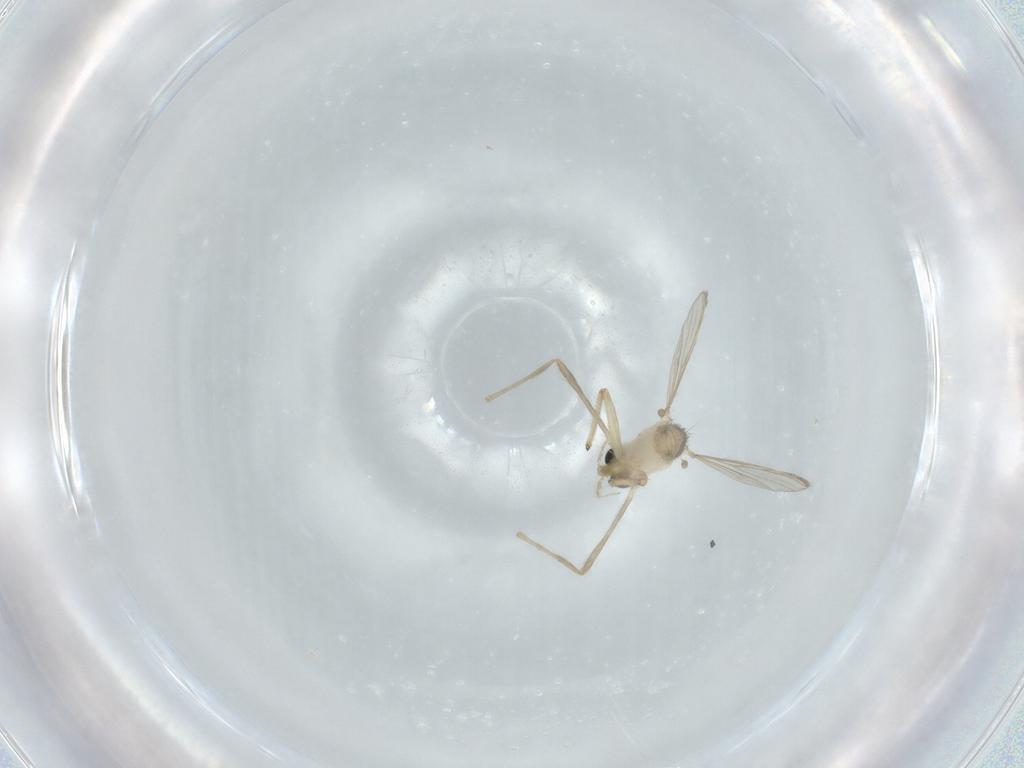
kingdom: Animalia
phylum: Arthropoda
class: Insecta
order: Diptera
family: Chironomidae
